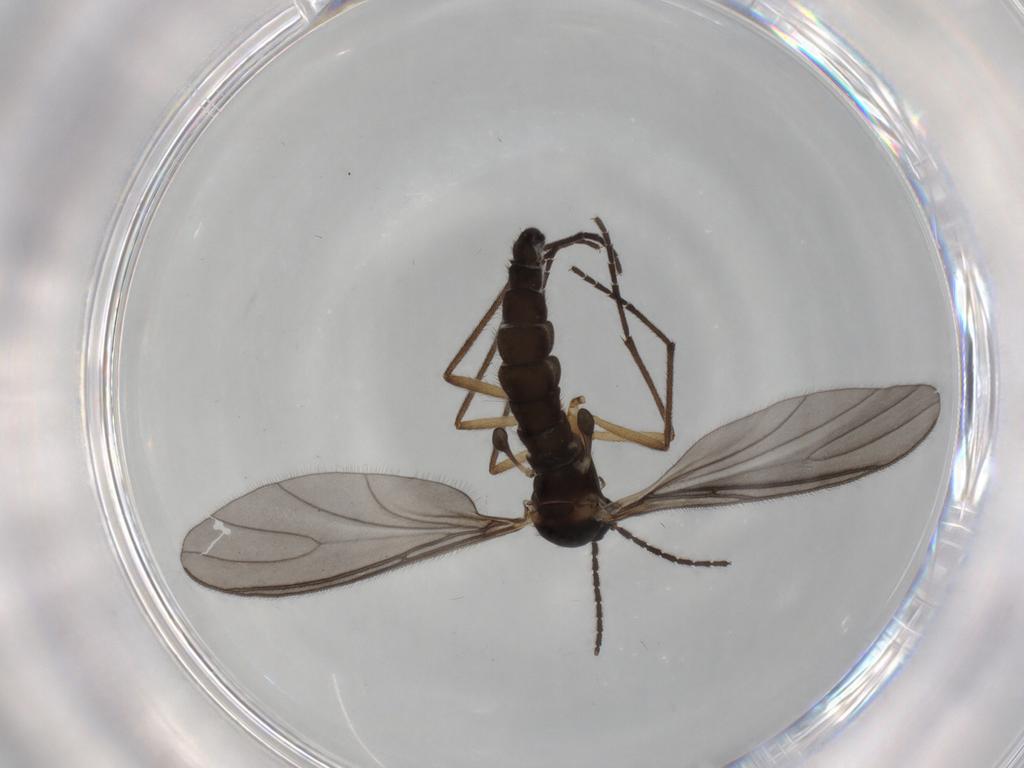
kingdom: Animalia
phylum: Arthropoda
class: Insecta
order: Diptera
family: Sciaridae
